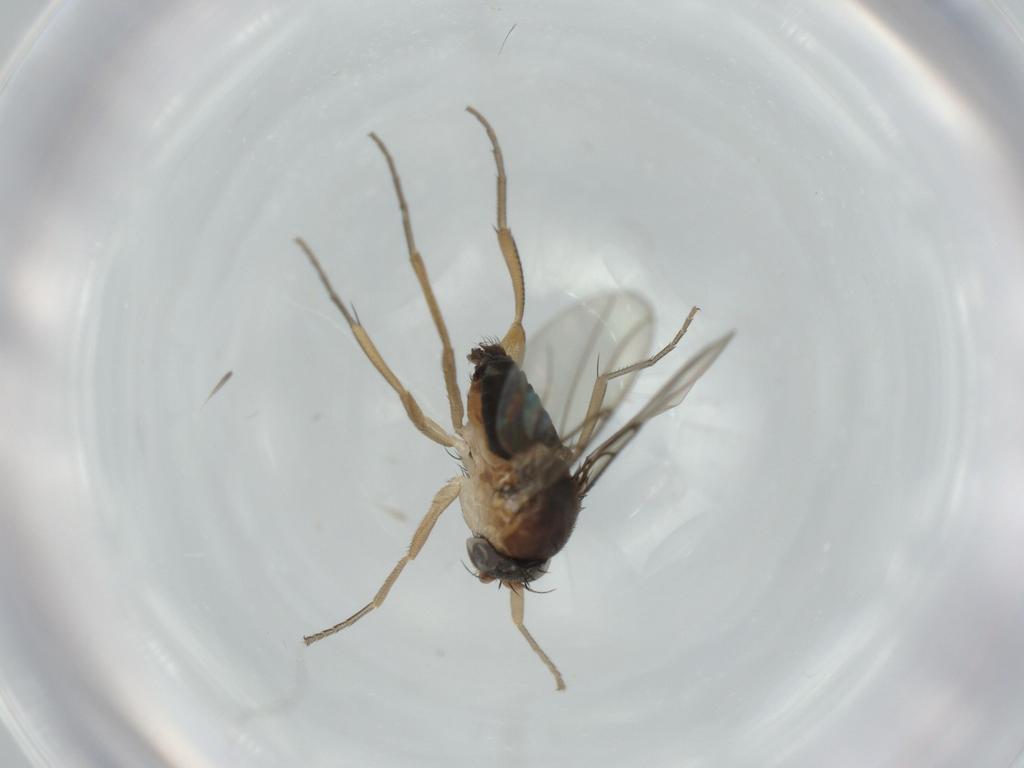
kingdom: Animalia
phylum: Arthropoda
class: Insecta
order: Diptera
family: Phoridae
